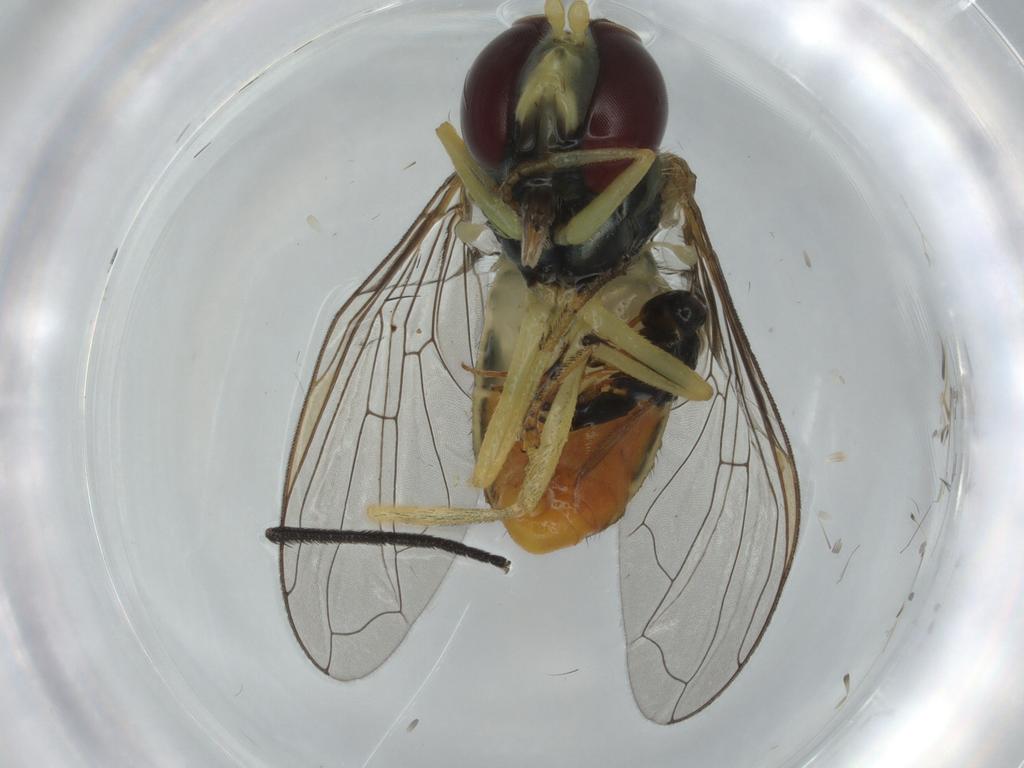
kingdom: Animalia
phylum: Arthropoda
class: Insecta
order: Diptera
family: Syrphidae
